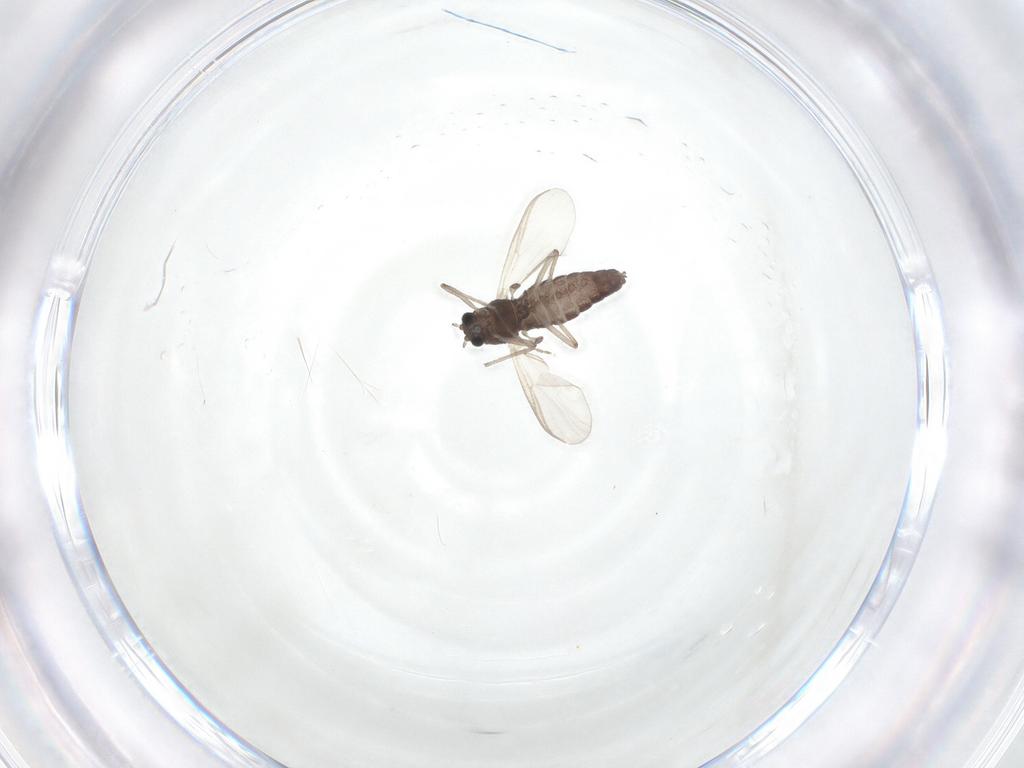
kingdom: Animalia
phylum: Arthropoda
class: Insecta
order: Diptera
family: Chironomidae
